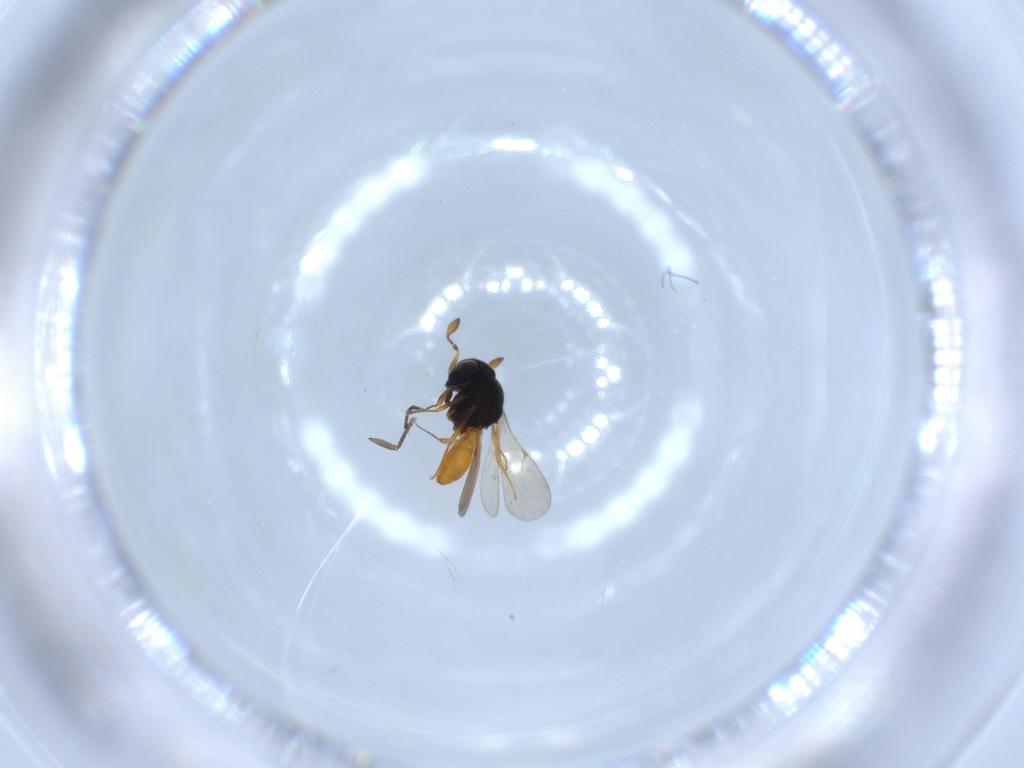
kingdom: Animalia
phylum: Arthropoda
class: Insecta
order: Hymenoptera
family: Scelionidae
